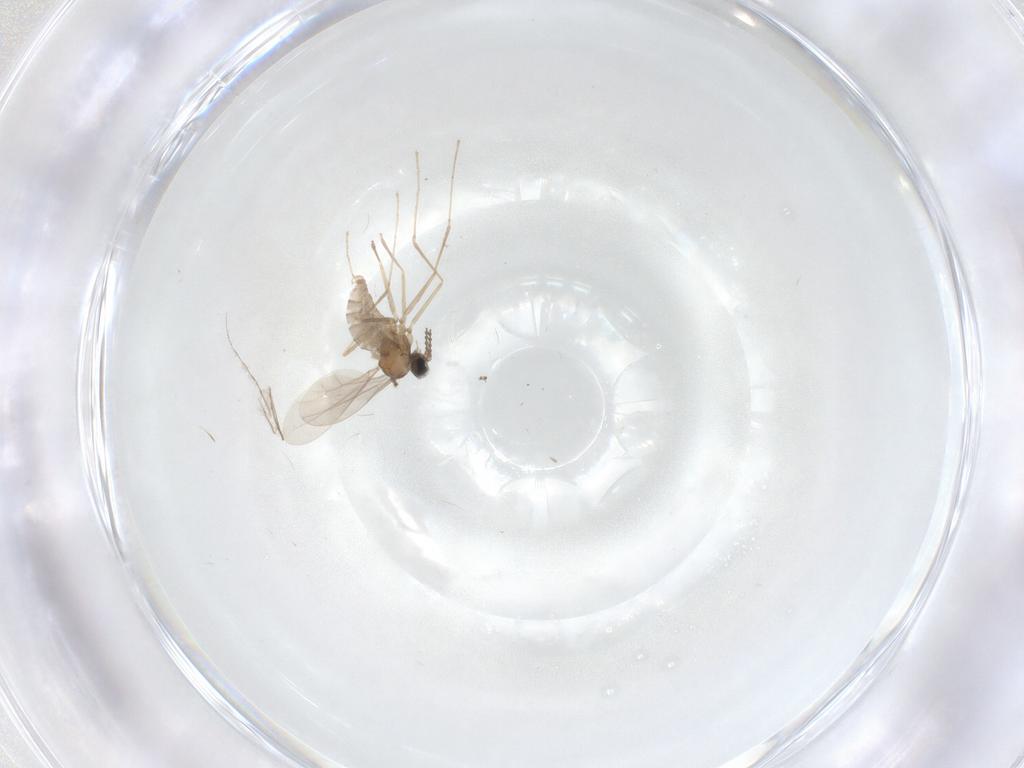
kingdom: Animalia
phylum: Arthropoda
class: Insecta
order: Diptera
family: Cecidomyiidae
